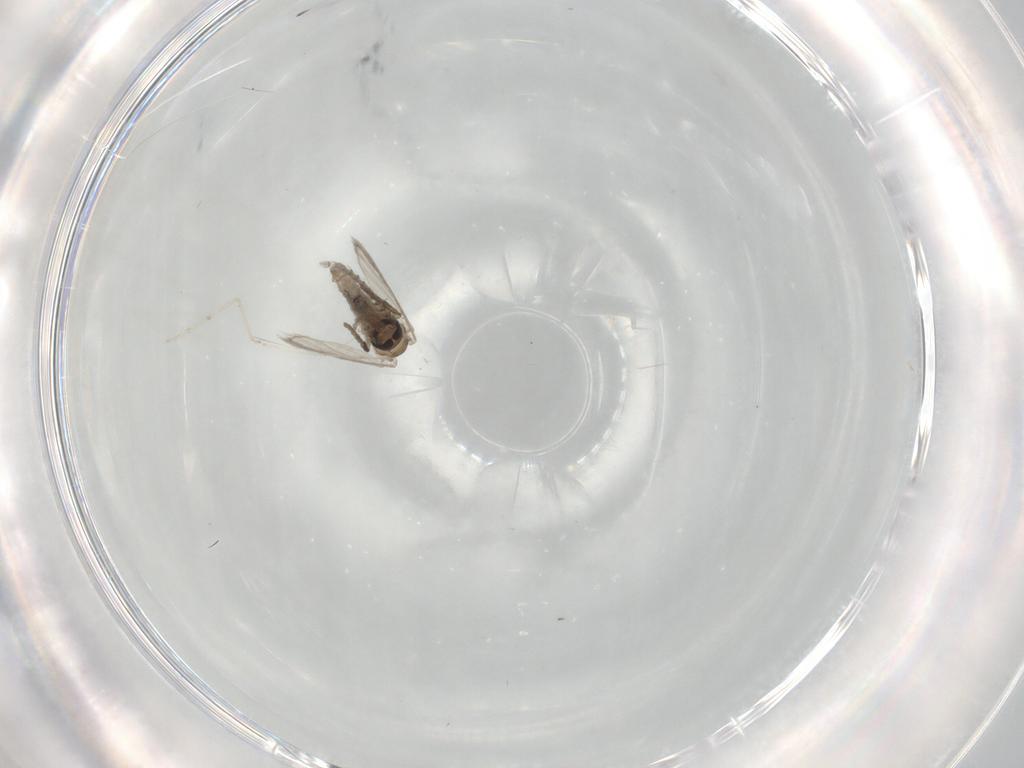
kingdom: Animalia
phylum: Arthropoda
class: Insecta
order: Diptera
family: Psychodidae
